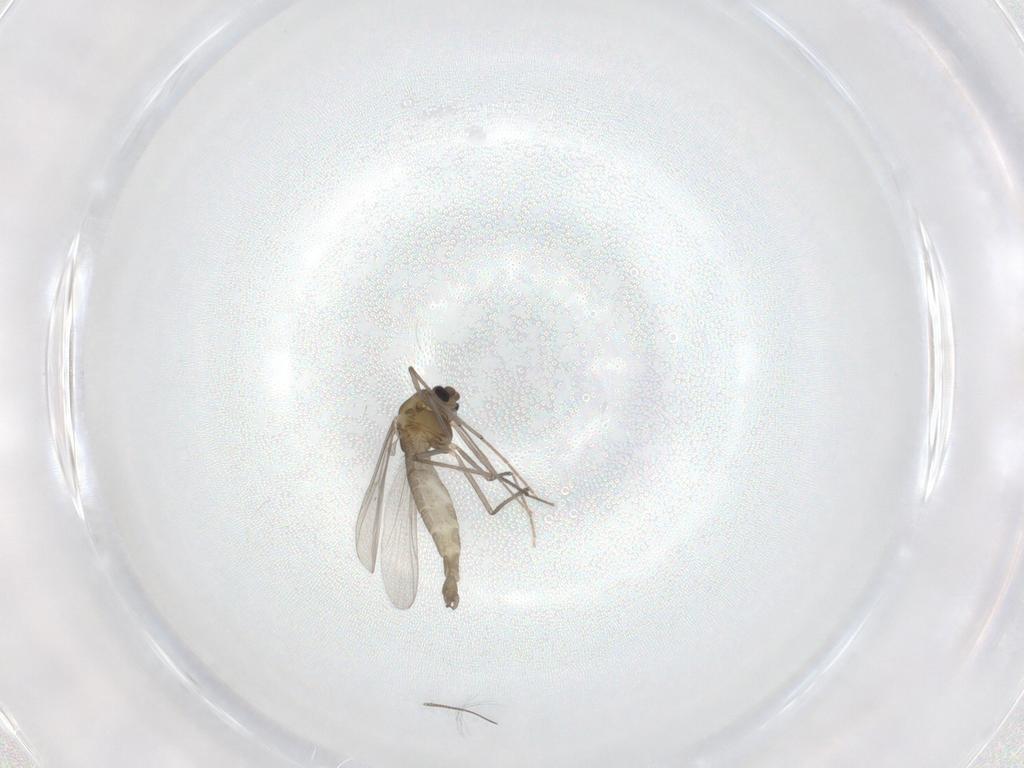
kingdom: Animalia
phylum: Arthropoda
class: Insecta
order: Diptera
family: Chironomidae
